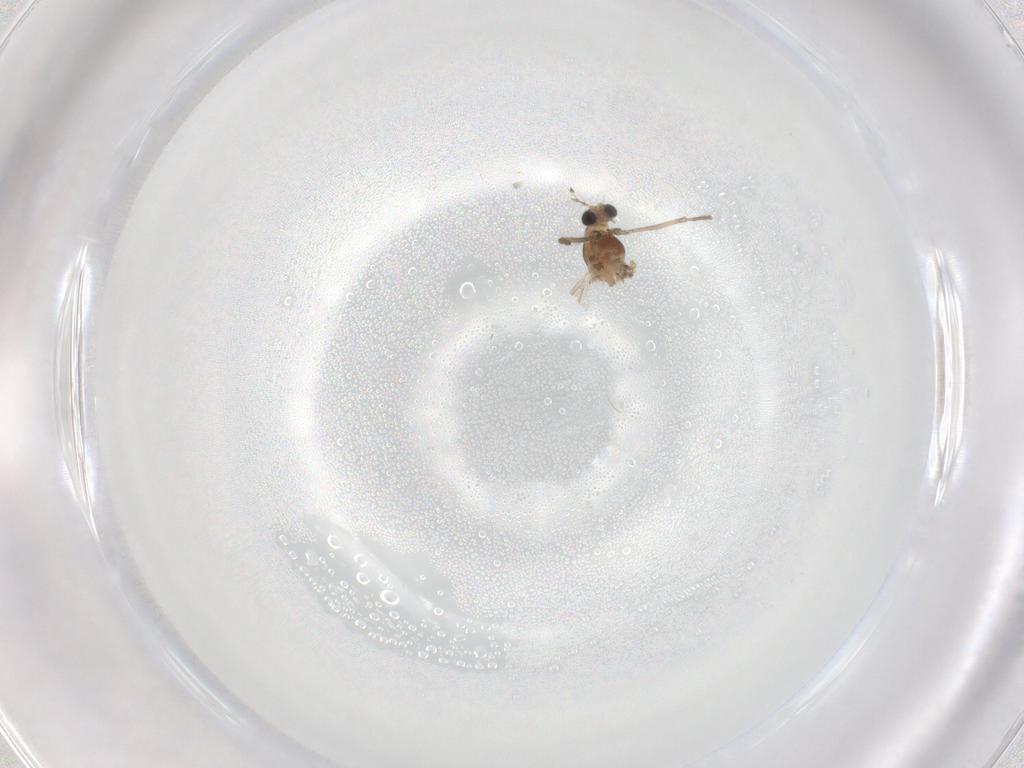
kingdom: Animalia
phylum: Arthropoda
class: Insecta
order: Diptera
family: Chironomidae
